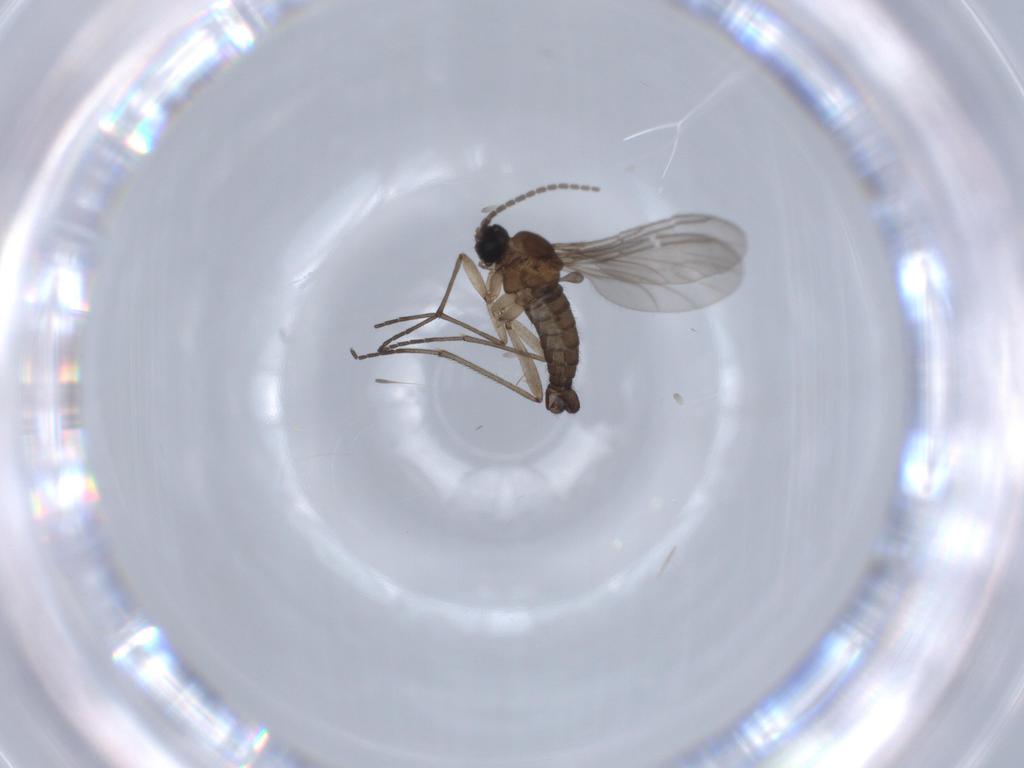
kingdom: Animalia
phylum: Arthropoda
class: Insecta
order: Diptera
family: Sciaridae
